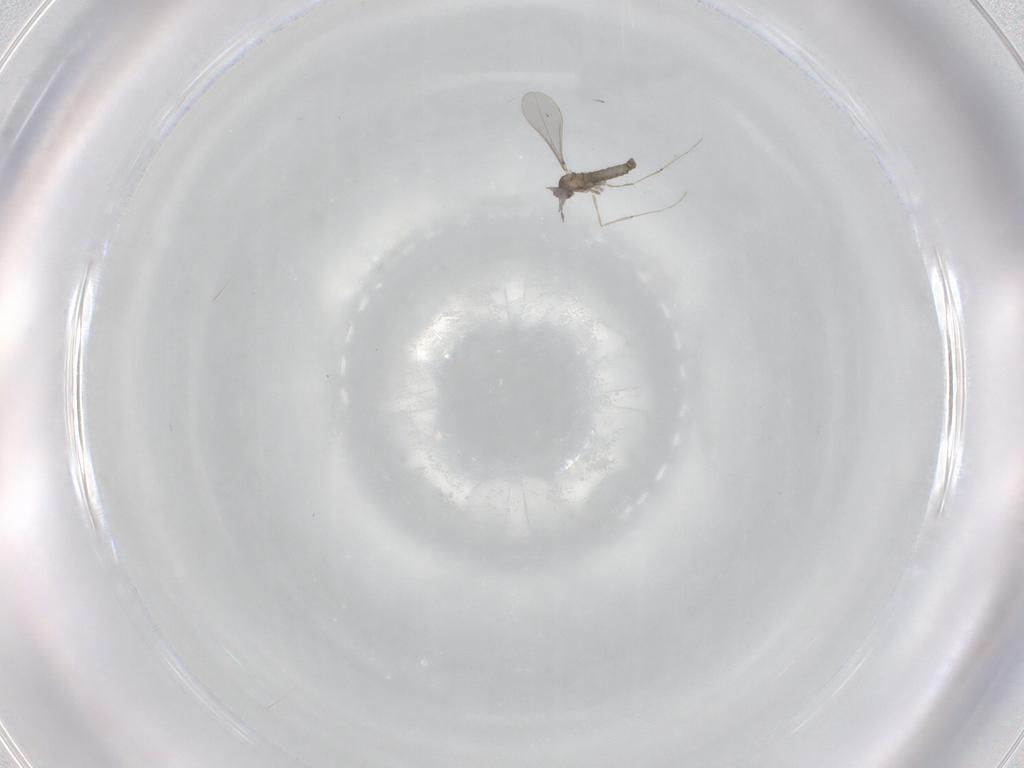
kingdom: Animalia
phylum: Arthropoda
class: Insecta
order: Diptera
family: Cecidomyiidae
